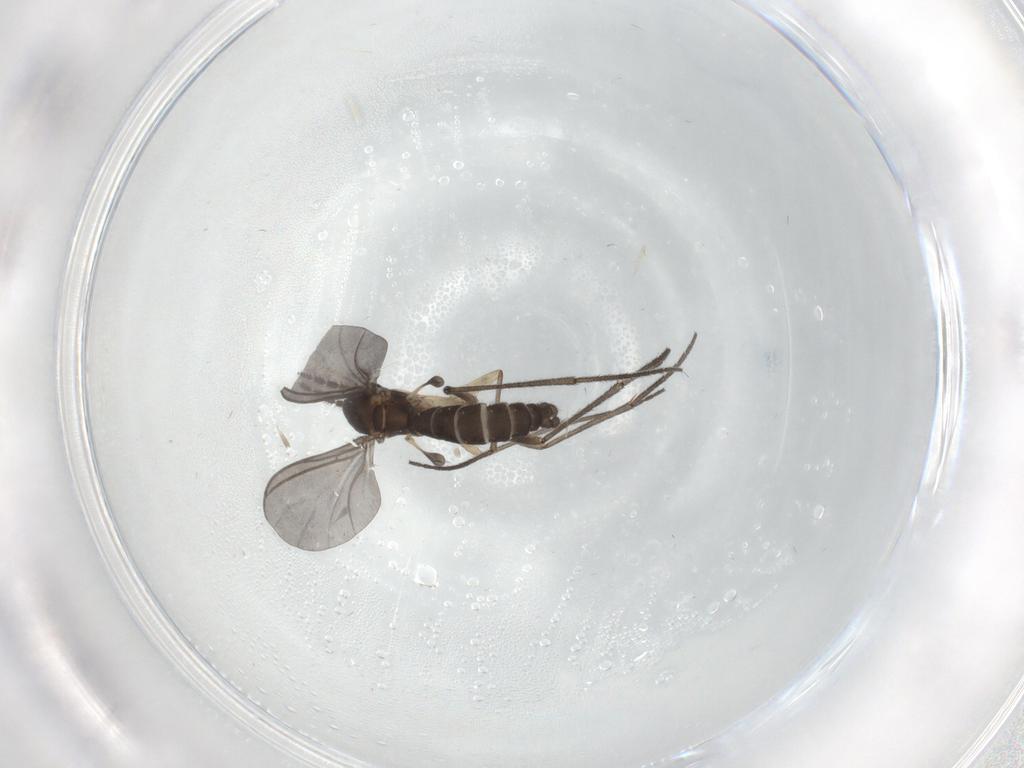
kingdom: Animalia
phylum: Arthropoda
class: Insecta
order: Diptera
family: Sciaridae
